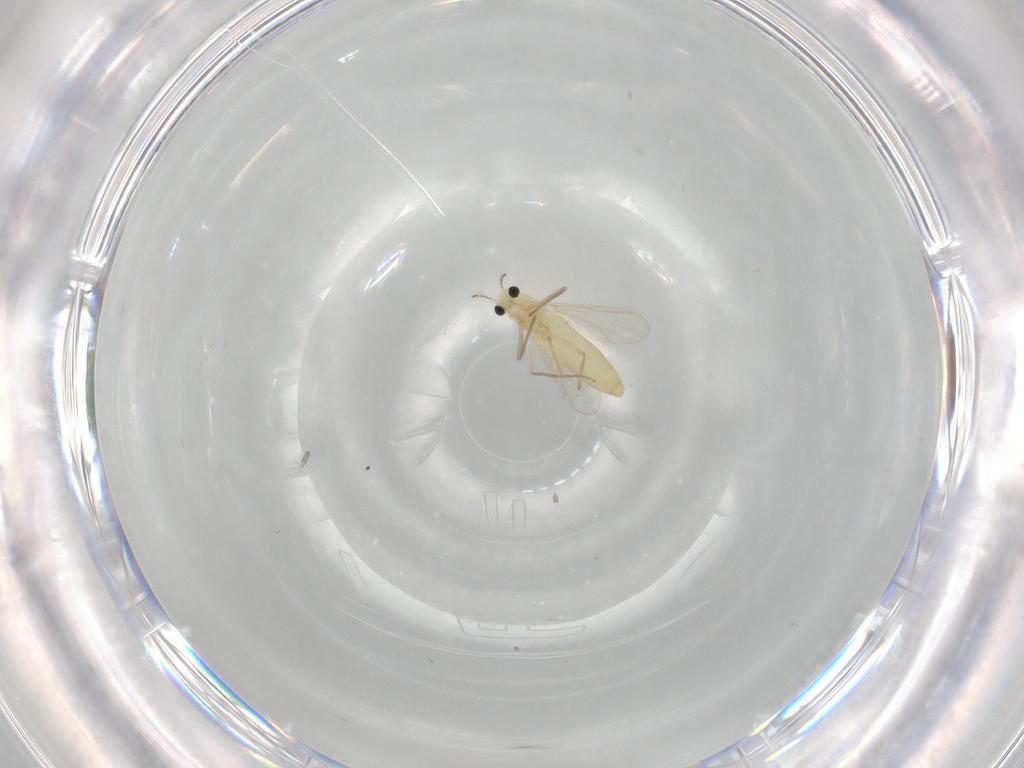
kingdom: Animalia
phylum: Arthropoda
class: Insecta
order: Diptera
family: Chironomidae
